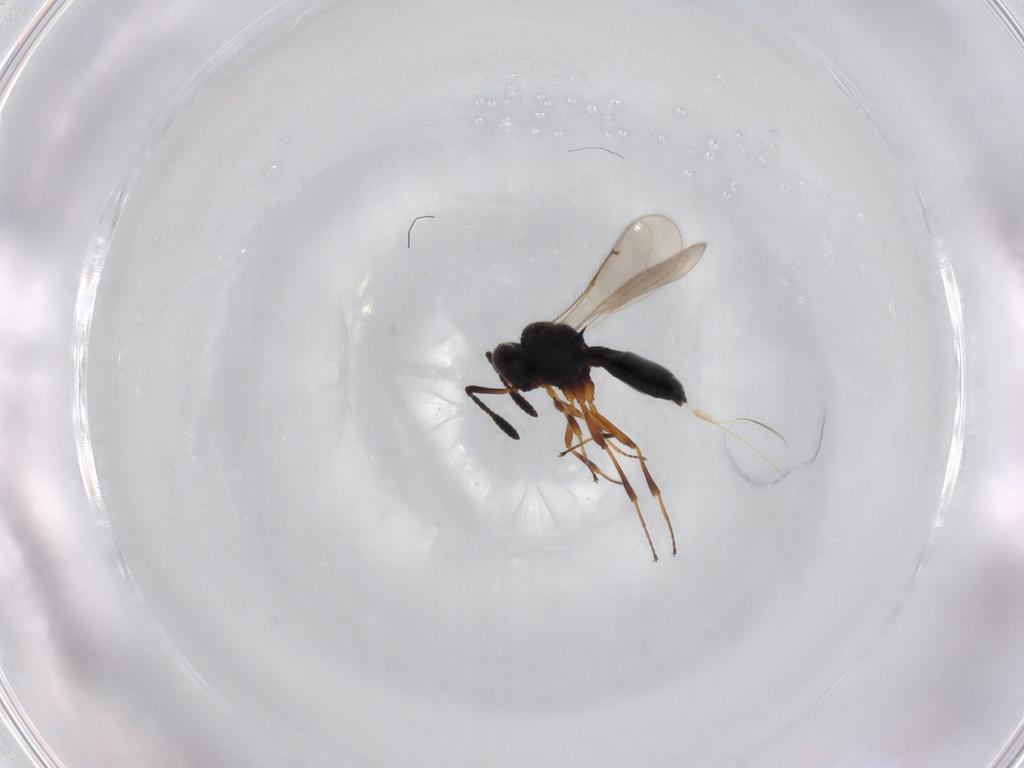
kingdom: Animalia
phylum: Arthropoda
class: Insecta
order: Hymenoptera
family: Scelionidae
